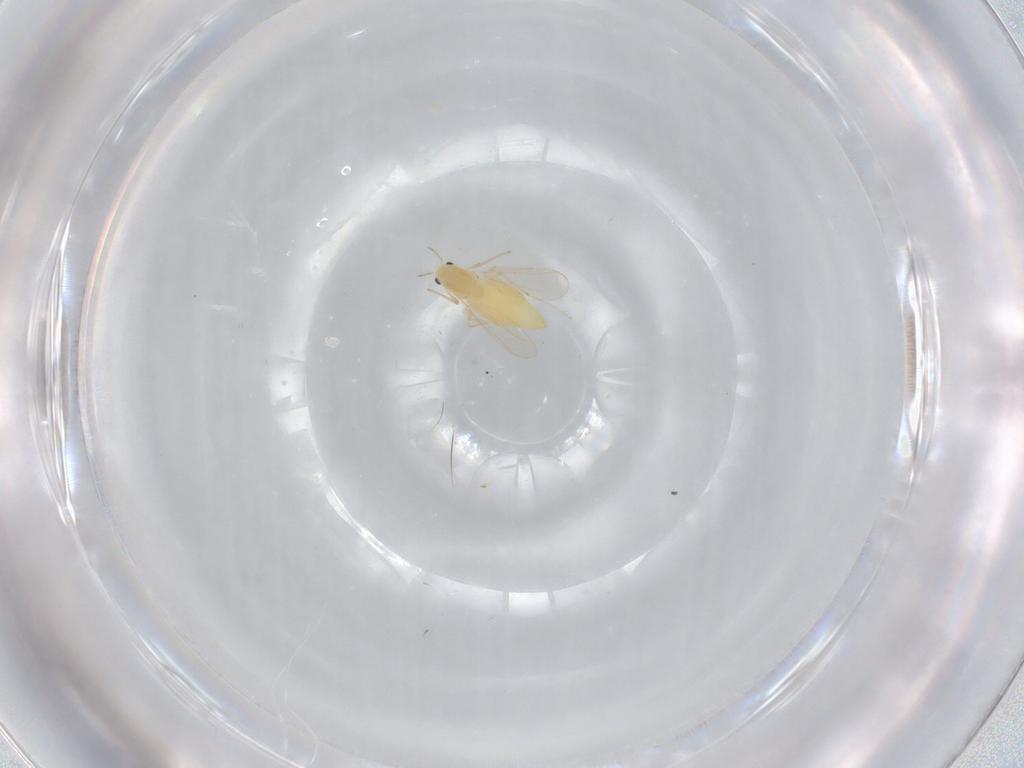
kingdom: Animalia
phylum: Arthropoda
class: Insecta
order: Diptera
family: Chironomidae
